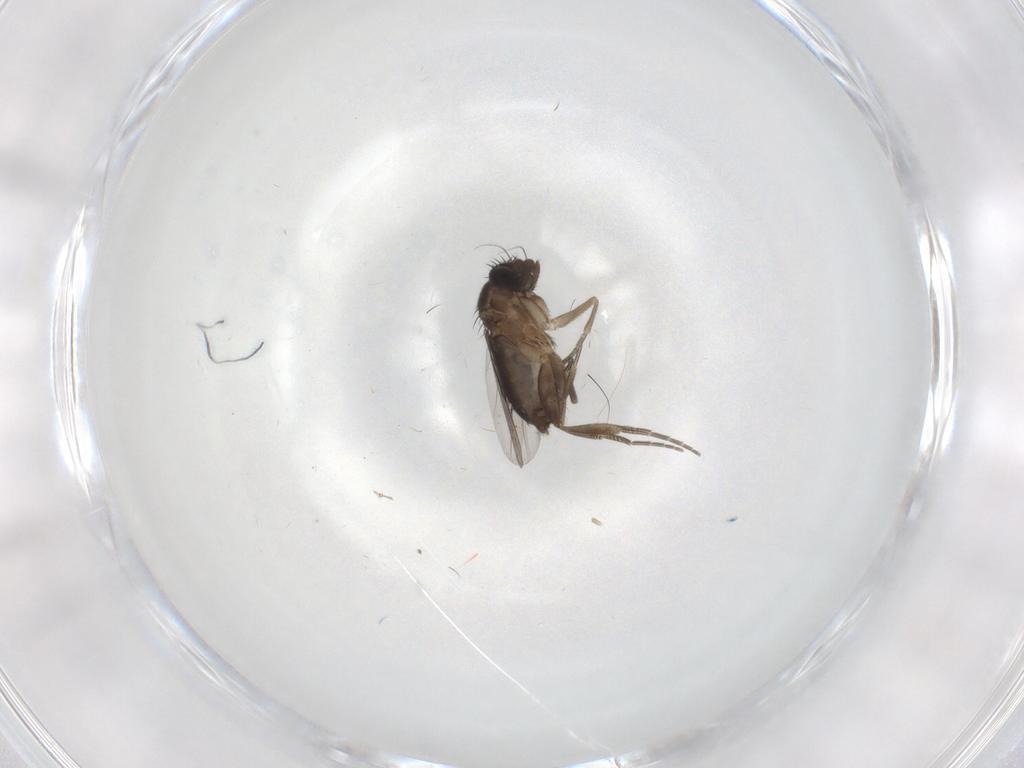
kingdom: Animalia
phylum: Arthropoda
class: Insecta
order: Diptera
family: Phoridae
